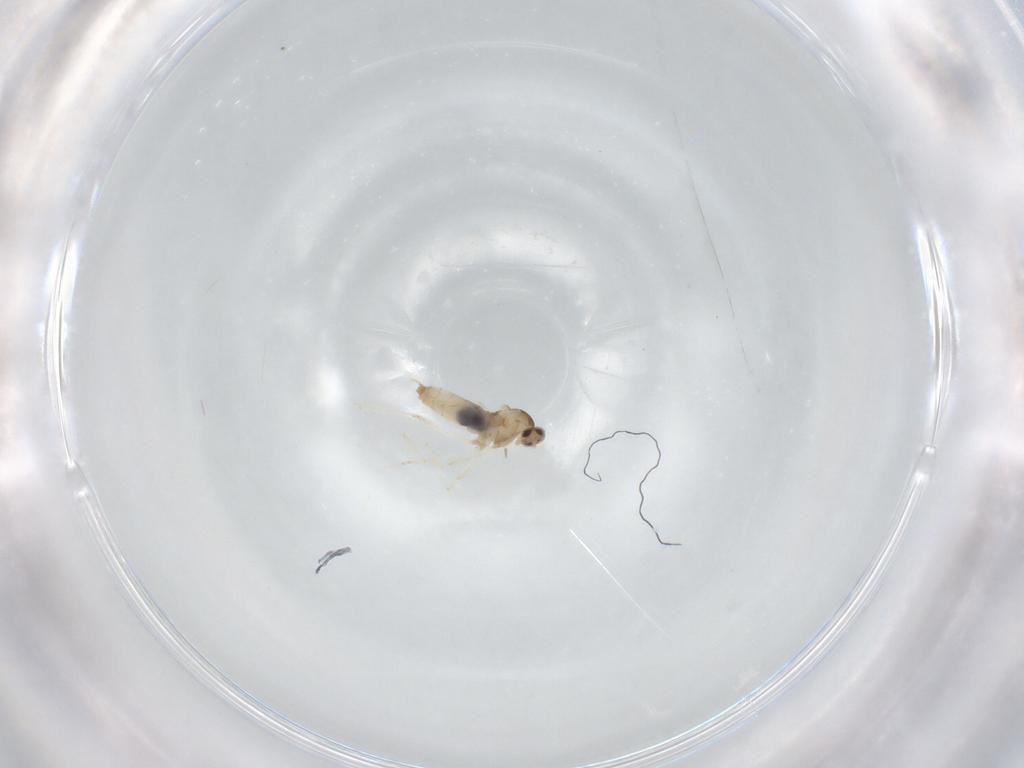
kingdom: Animalia
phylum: Arthropoda
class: Insecta
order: Diptera
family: Cecidomyiidae
